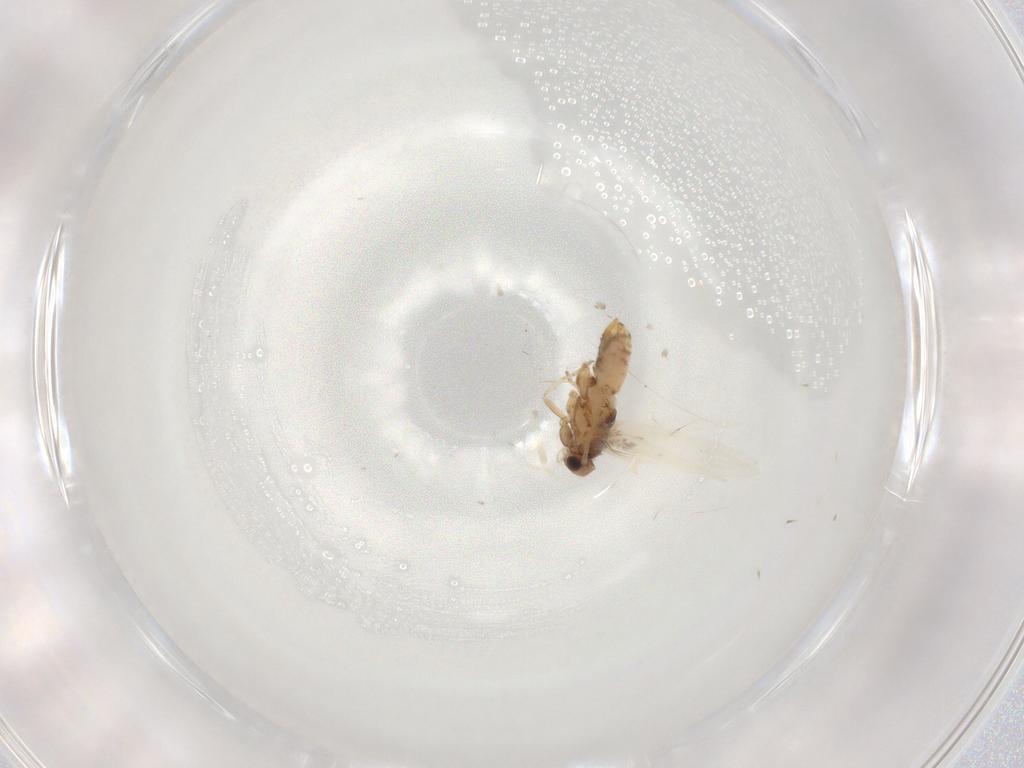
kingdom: Animalia
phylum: Arthropoda
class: Insecta
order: Lepidoptera
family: Nepticulidae
